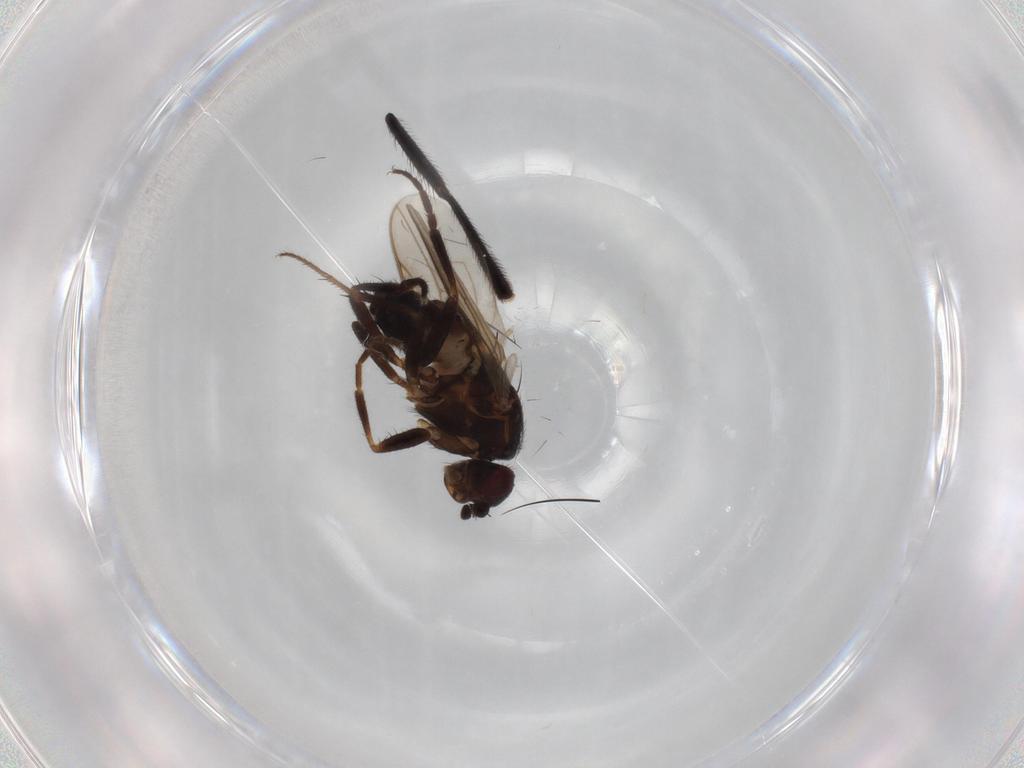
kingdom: Animalia
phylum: Arthropoda
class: Insecta
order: Diptera
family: Sphaeroceridae
